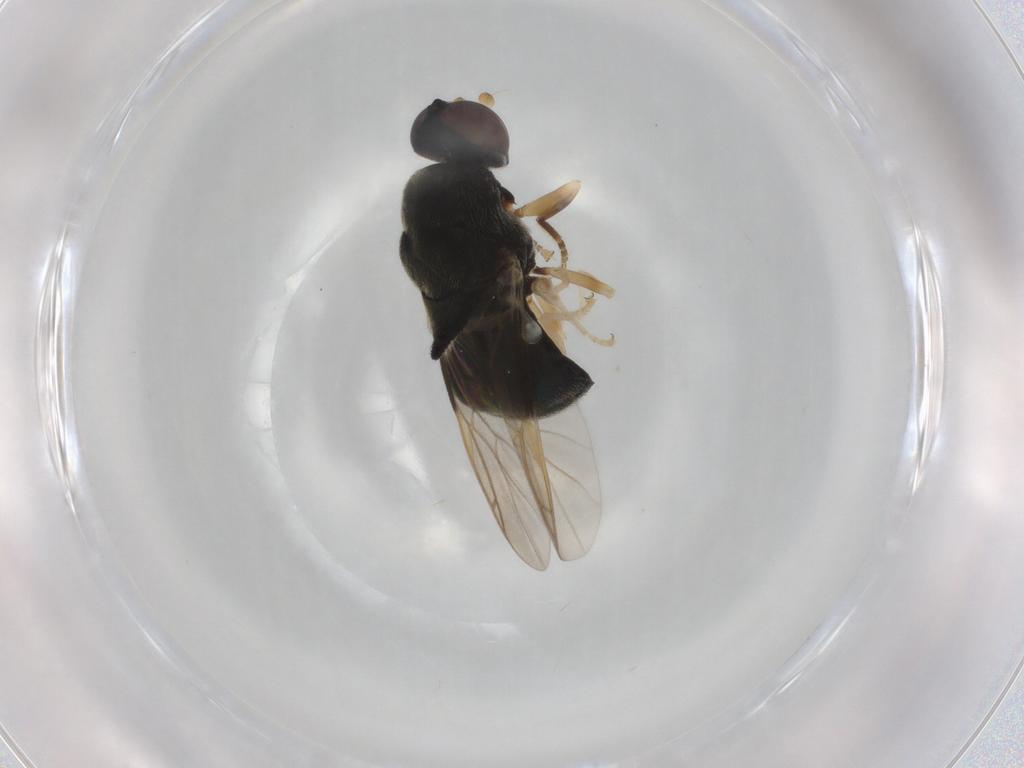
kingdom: Animalia
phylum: Arthropoda
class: Insecta
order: Diptera
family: Stratiomyidae
